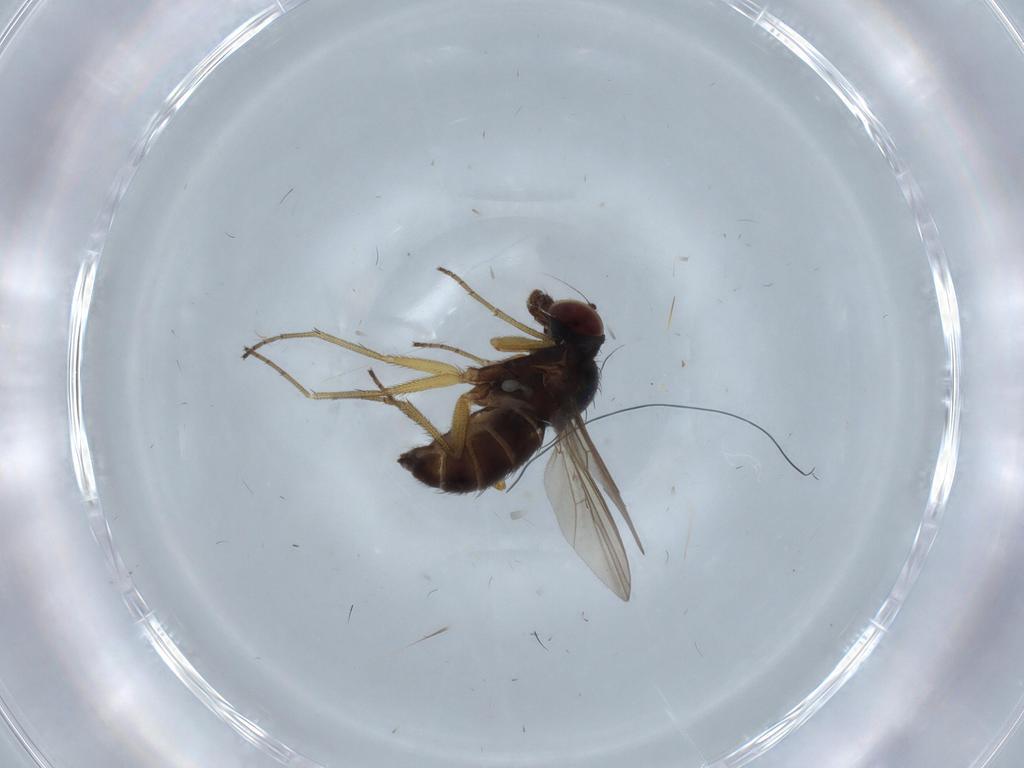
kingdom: Animalia
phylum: Arthropoda
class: Insecta
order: Diptera
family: Dolichopodidae
